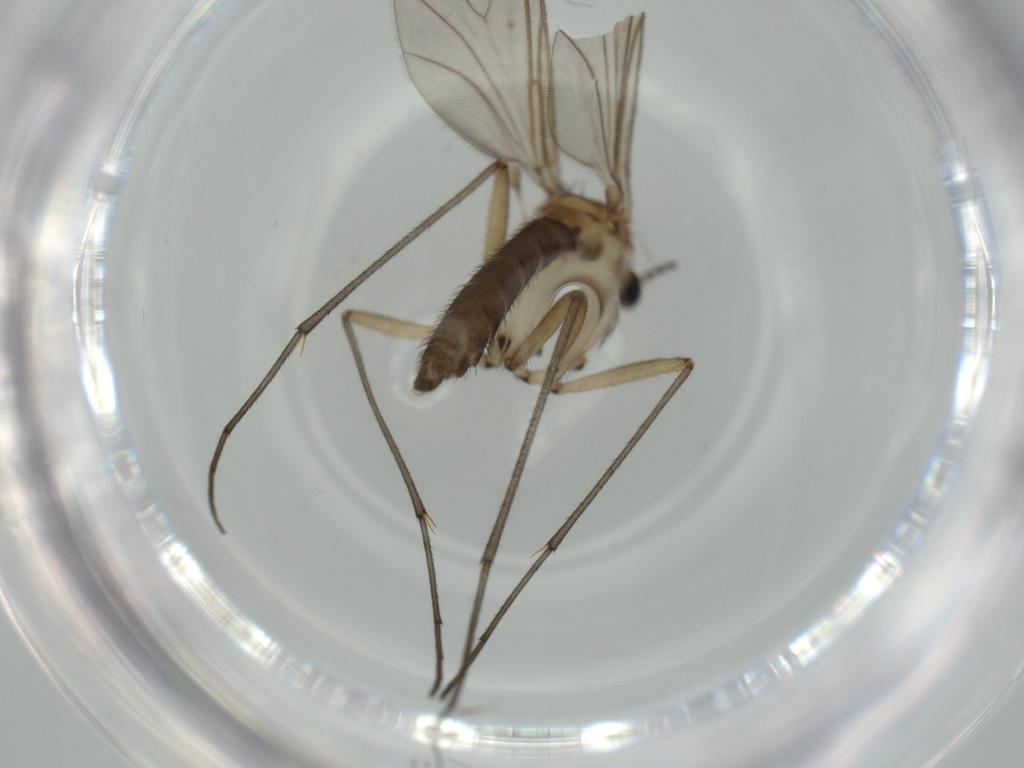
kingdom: Animalia
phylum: Arthropoda
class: Insecta
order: Diptera
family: Sciaridae
